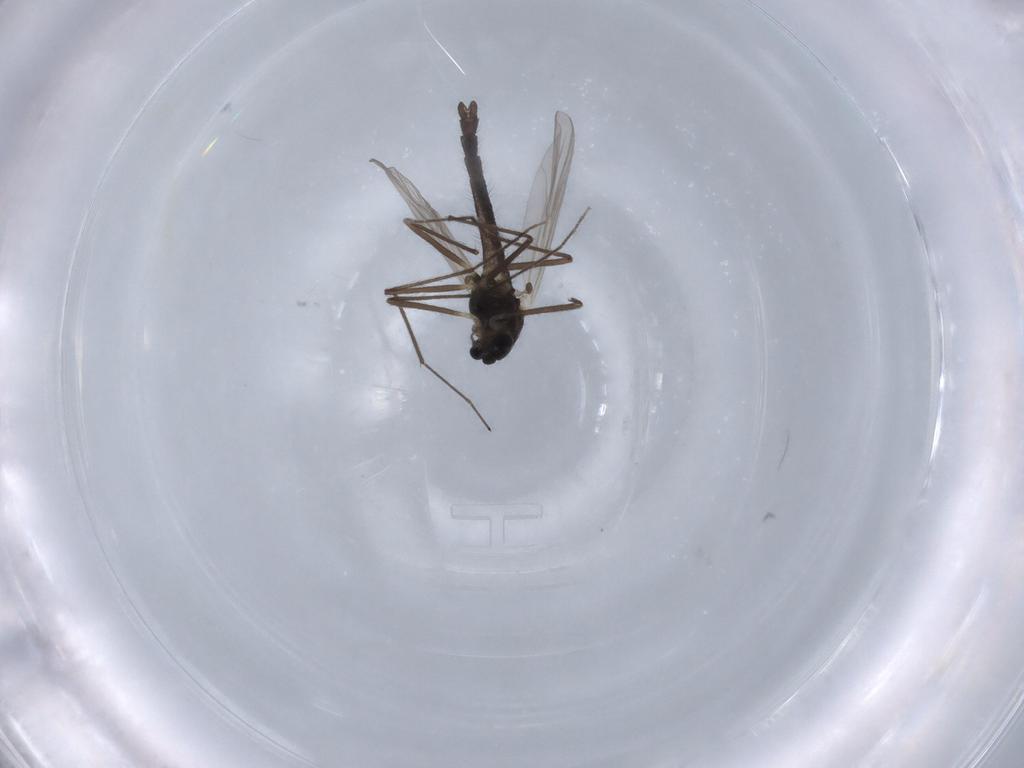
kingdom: Animalia
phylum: Arthropoda
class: Insecta
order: Diptera
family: Chironomidae
